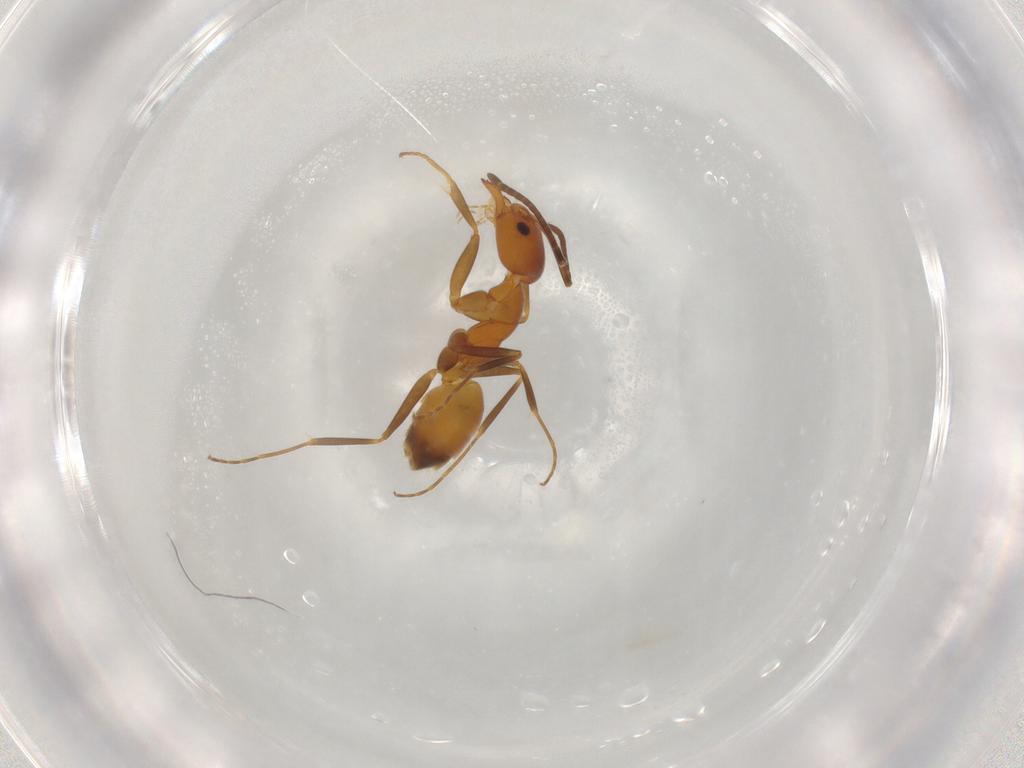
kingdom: Animalia
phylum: Arthropoda
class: Insecta
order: Hymenoptera
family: Formicidae
